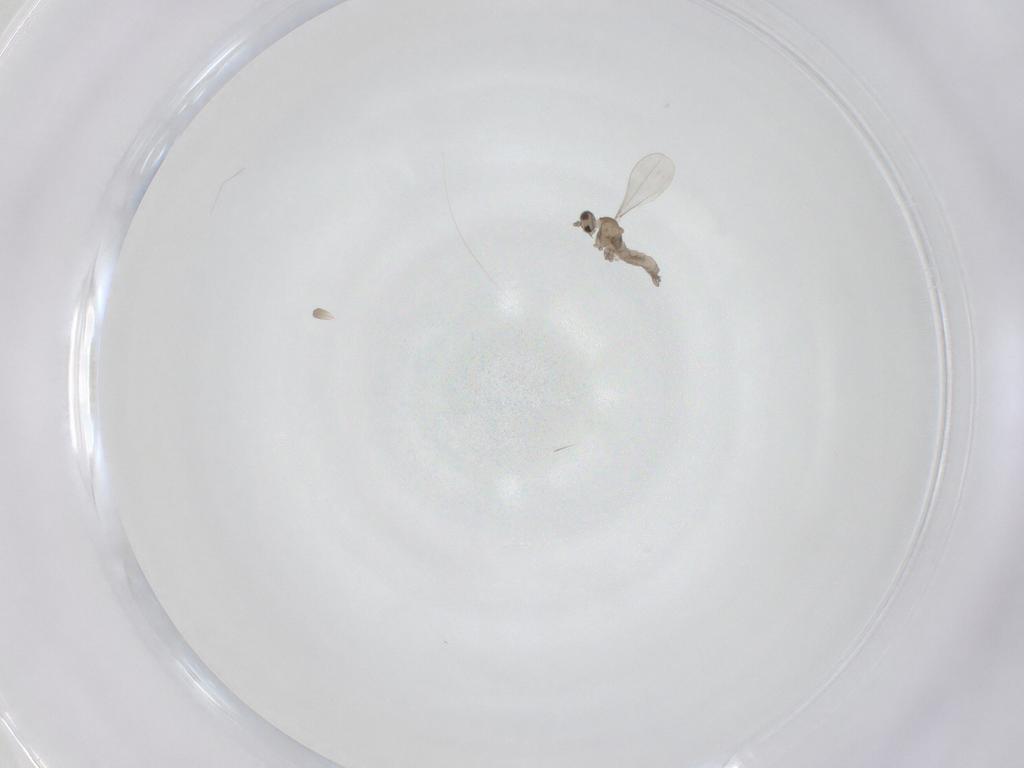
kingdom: Animalia
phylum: Arthropoda
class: Insecta
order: Diptera
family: Cecidomyiidae
